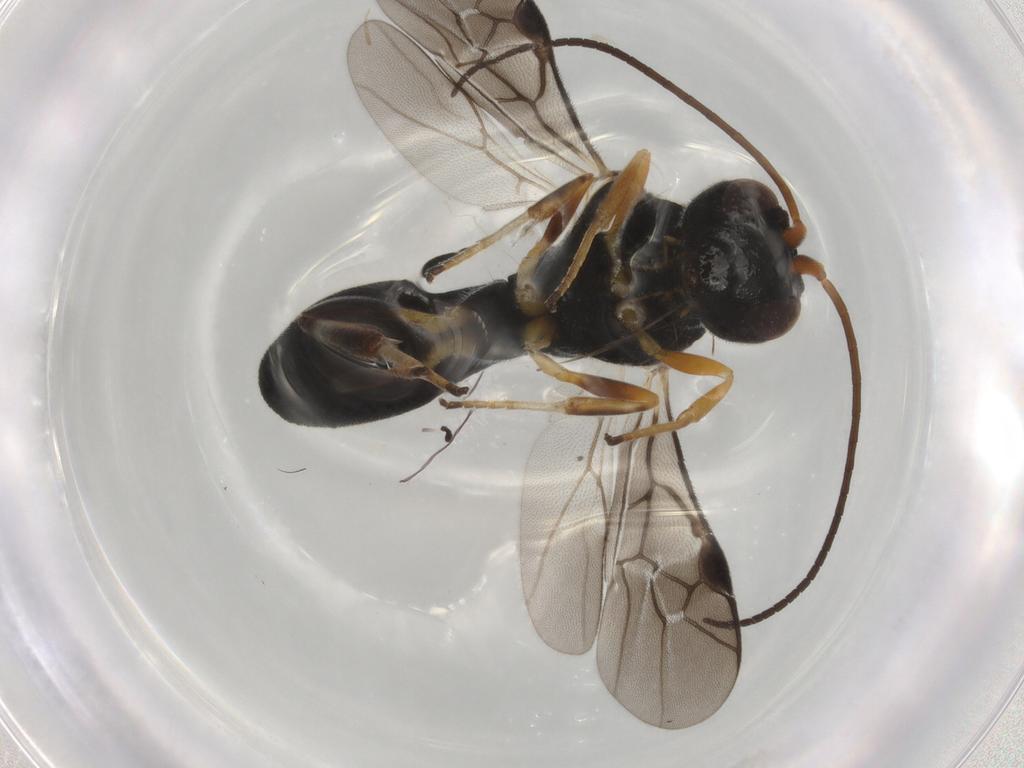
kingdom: Animalia
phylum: Arthropoda
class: Insecta
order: Hymenoptera
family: Braconidae
